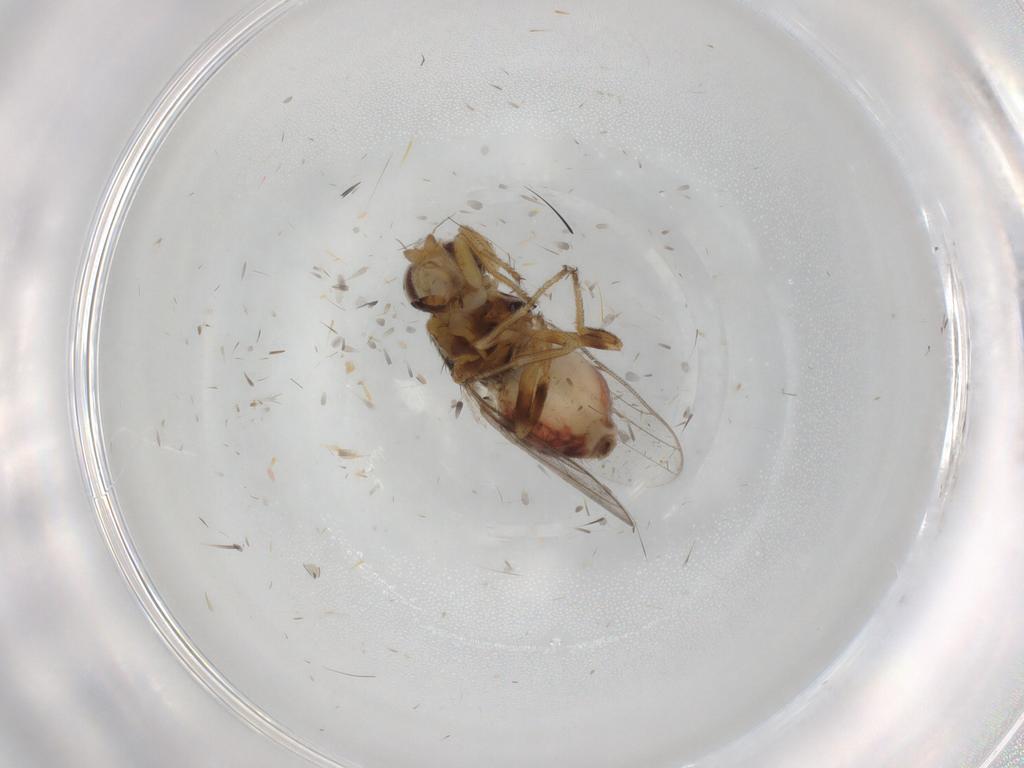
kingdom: Animalia
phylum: Arthropoda
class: Insecta
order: Diptera
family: Chloropidae
